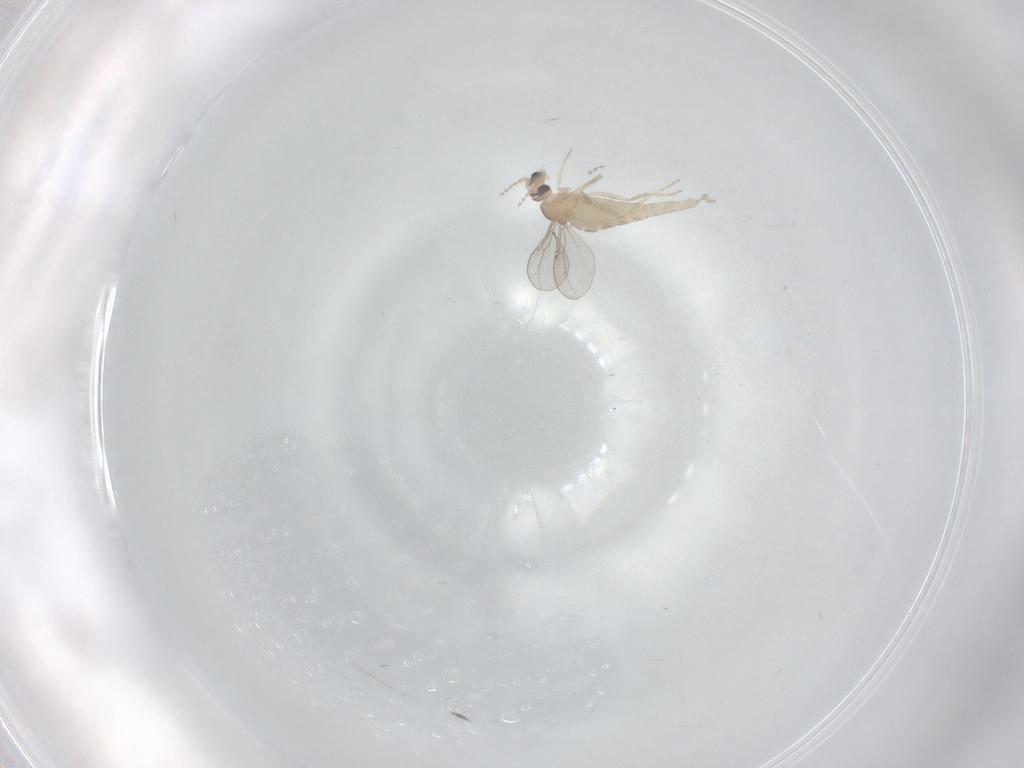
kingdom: Animalia
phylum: Arthropoda
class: Insecta
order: Diptera
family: Cecidomyiidae
